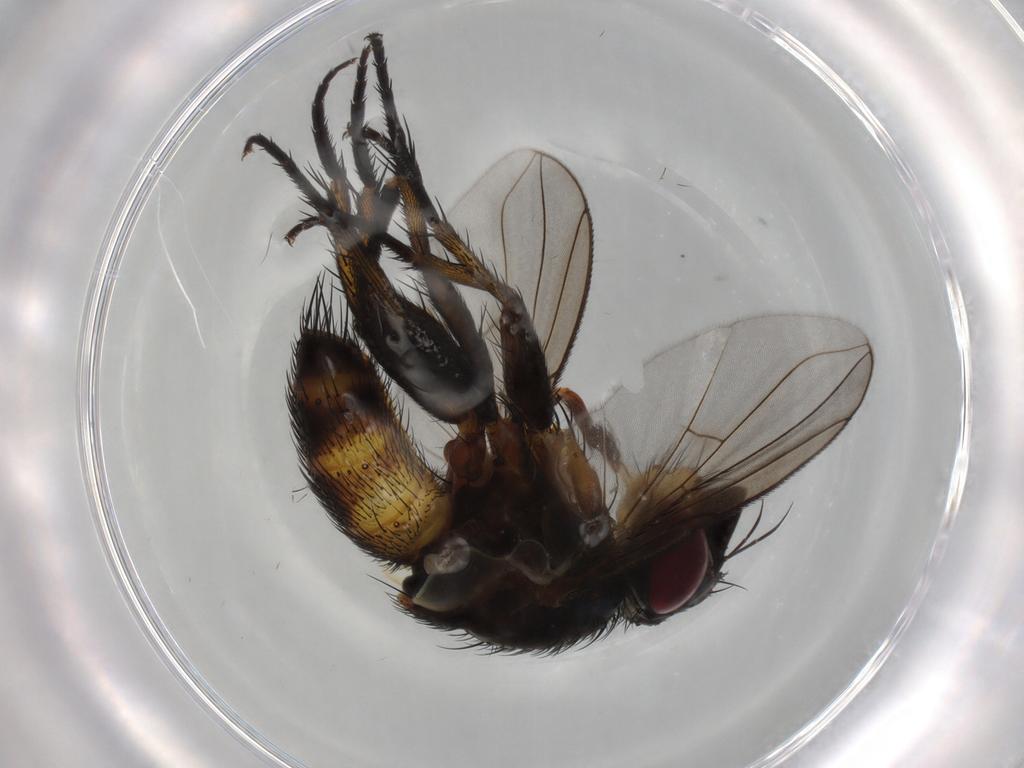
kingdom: Animalia
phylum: Arthropoda
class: Insecta
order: Diptera
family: Tachinidae
